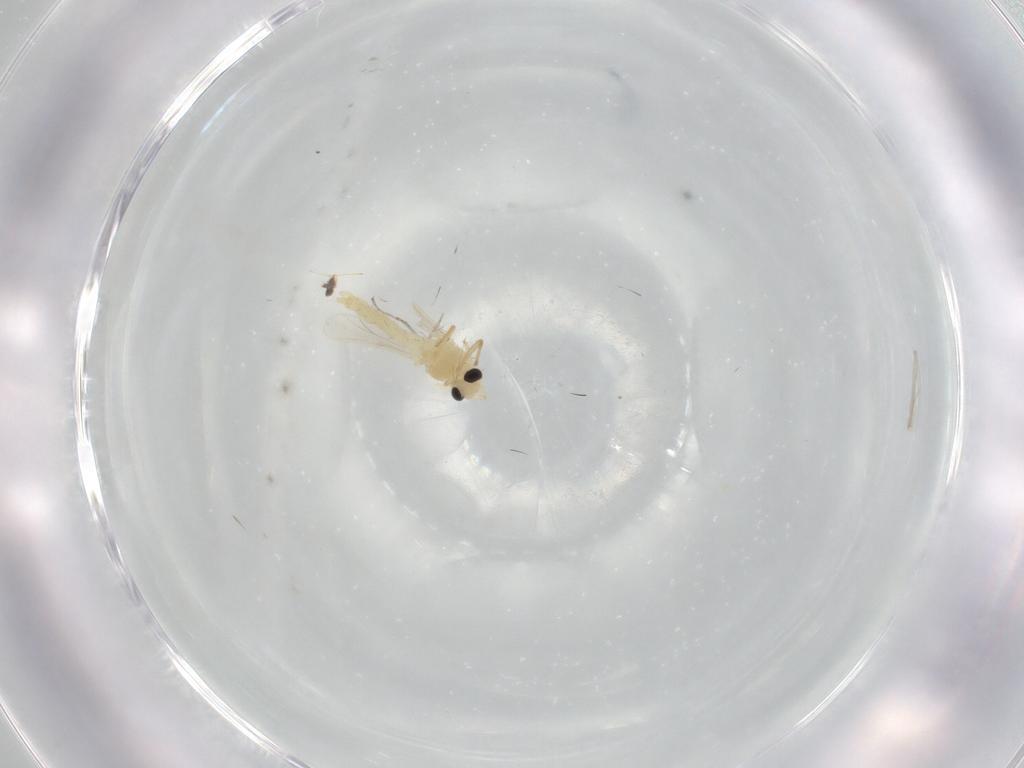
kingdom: Animalia
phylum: Arthropoda
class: Insecta
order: Diptera
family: Chironomidae
